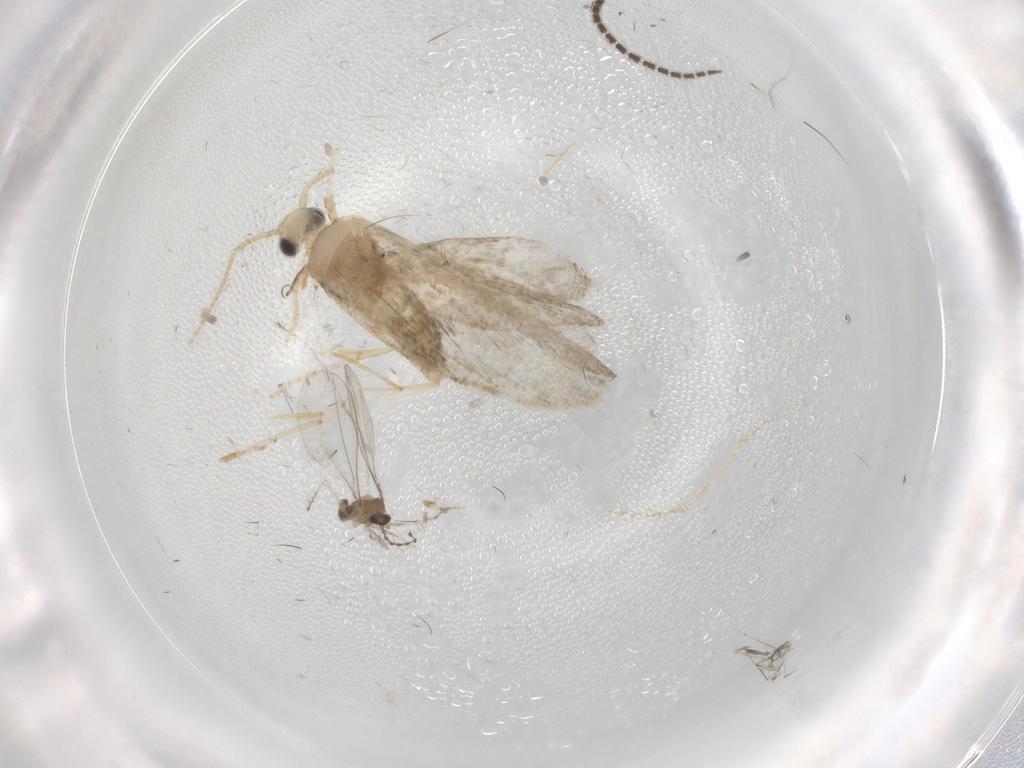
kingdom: Animalia
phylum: Arthropoda
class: Insecta
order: Lepidoptera
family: Psychidae
